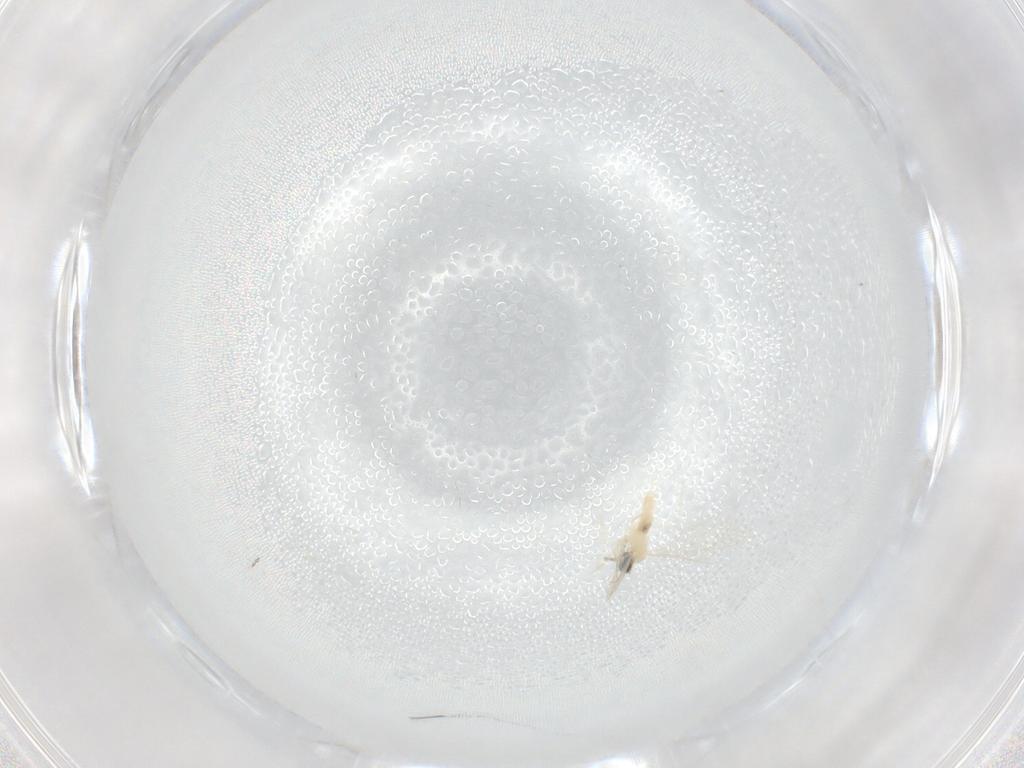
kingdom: Animalia
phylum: Arthropoda
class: Insecta
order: Diptera
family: Cecidomyiidae
